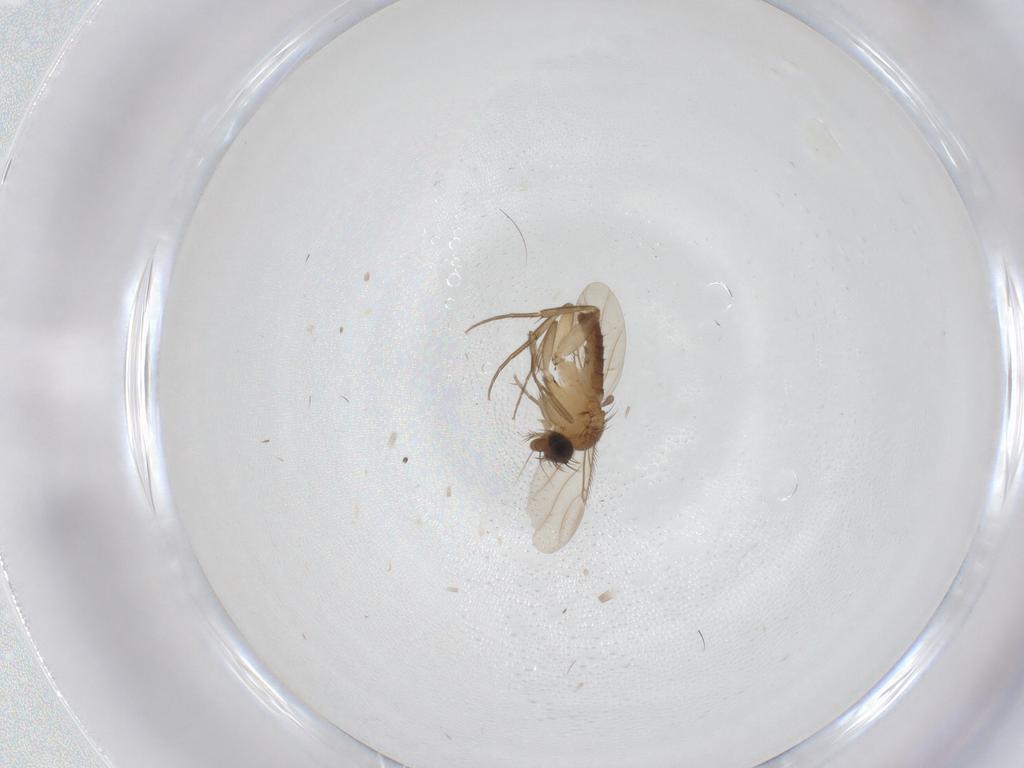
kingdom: Animalia
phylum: Arthropoda
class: Insecta
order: Diptera
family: Phoridae
